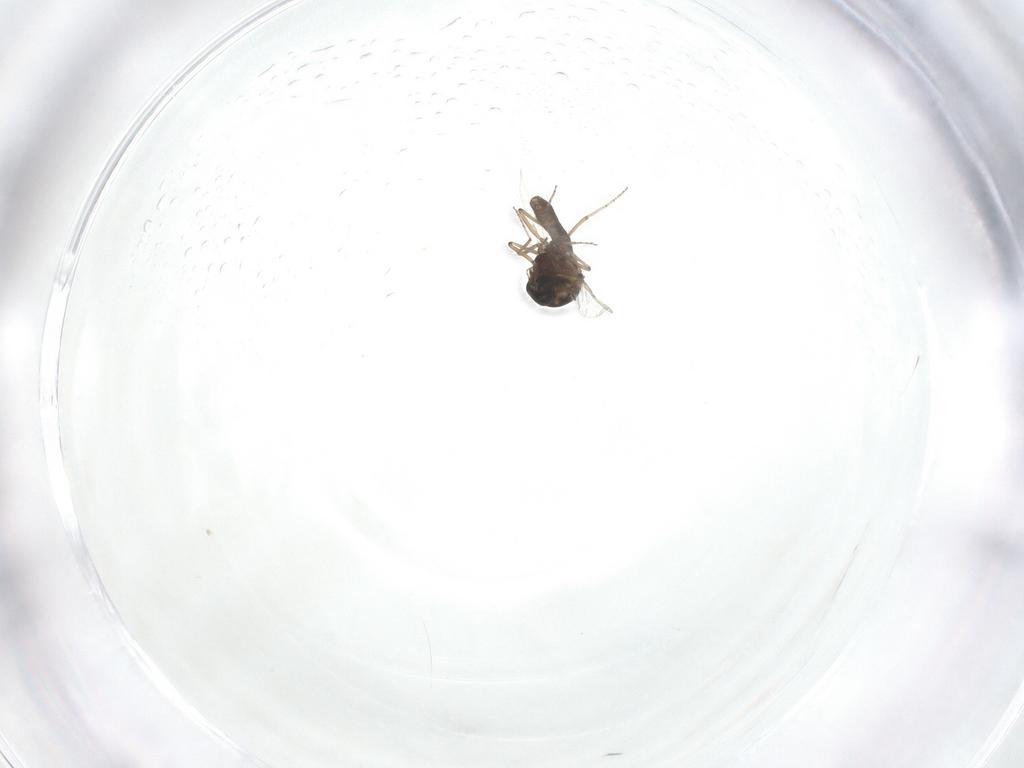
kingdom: Animalia
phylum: Arthropoda
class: Insecta
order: Diptera
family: Ceratopogonidae
